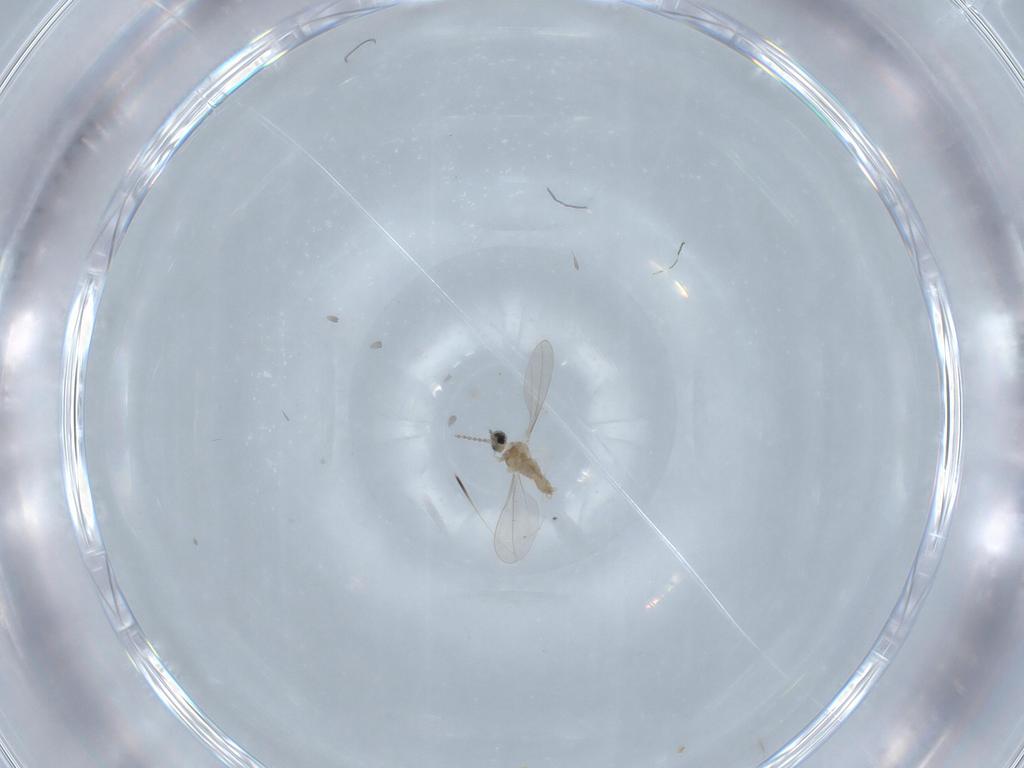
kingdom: Animalia
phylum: Arthropoda
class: Insecta
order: Diptera
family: Cecidomyiidae
